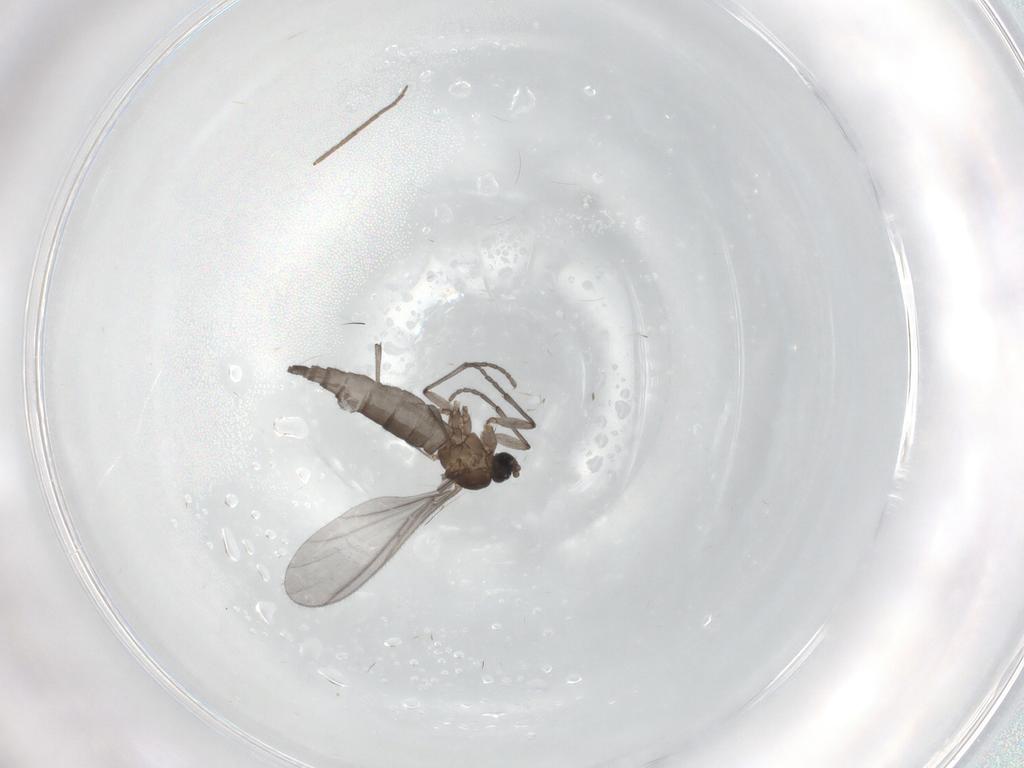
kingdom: Animalia
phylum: Arthropoda
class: Insecta
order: Diptera
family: Sciaridae
